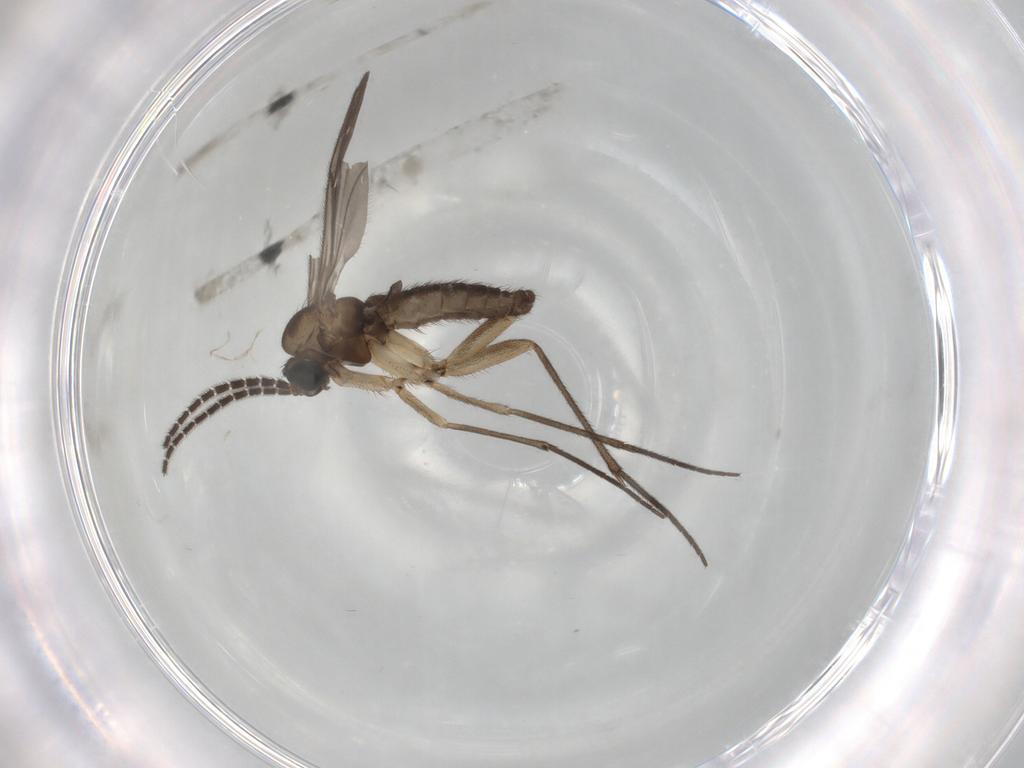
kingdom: Animalia
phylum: Arthropoda
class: Insecta
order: Diptera
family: Sciaridae
